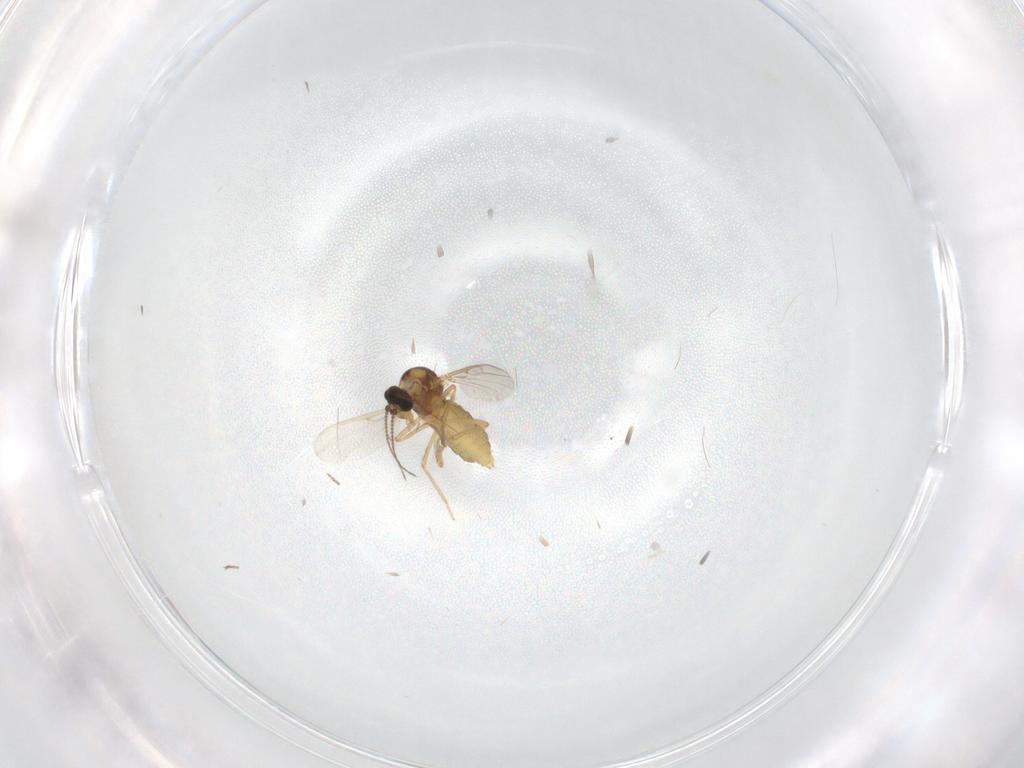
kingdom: Animalia
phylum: Arthropoda
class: Insecta
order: Diptera
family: Ceratopogonidae
